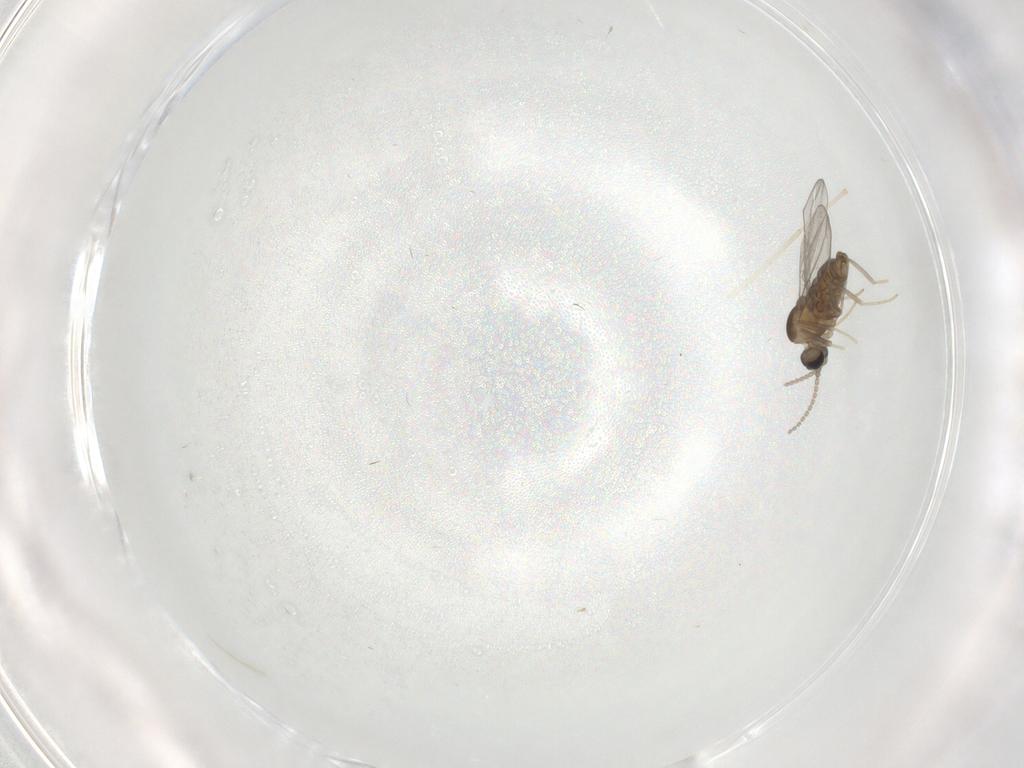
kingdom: Animalia
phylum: Arthropoda
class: Insecta
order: Diptera
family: Cecidomyiidae
